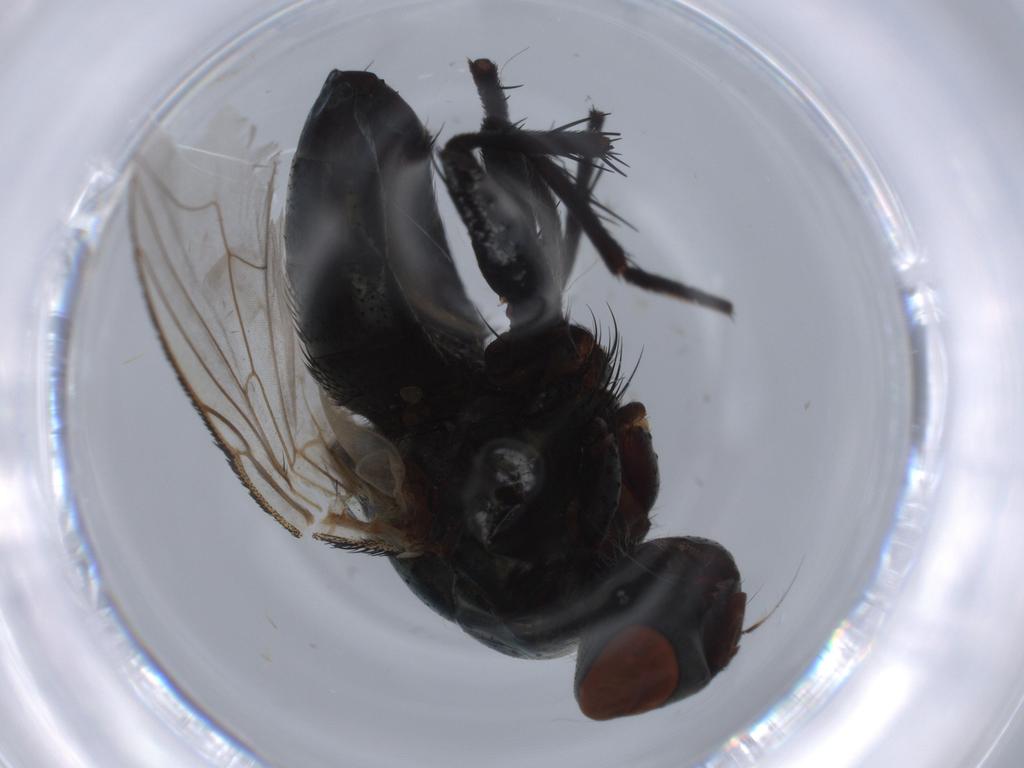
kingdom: Animalia
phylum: Arthropoda
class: Insecta
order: Diptera
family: Sarcophagidae
